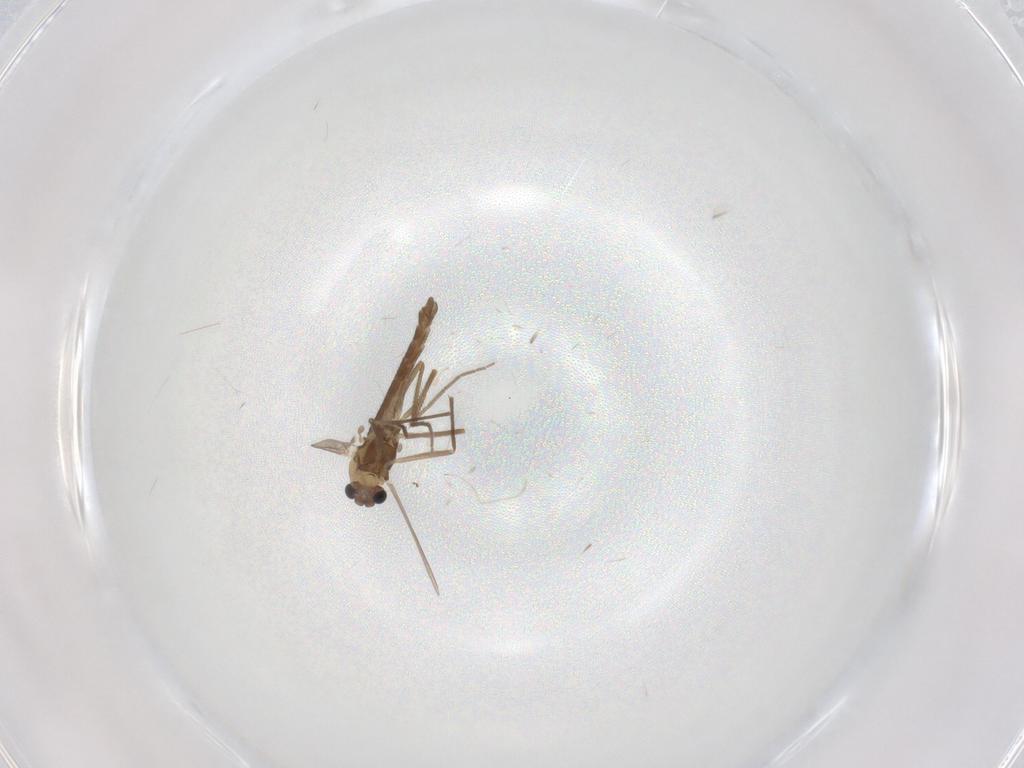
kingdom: Animalia
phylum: Arthropoda
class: Insecta
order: Diptera
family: Chironomidae
